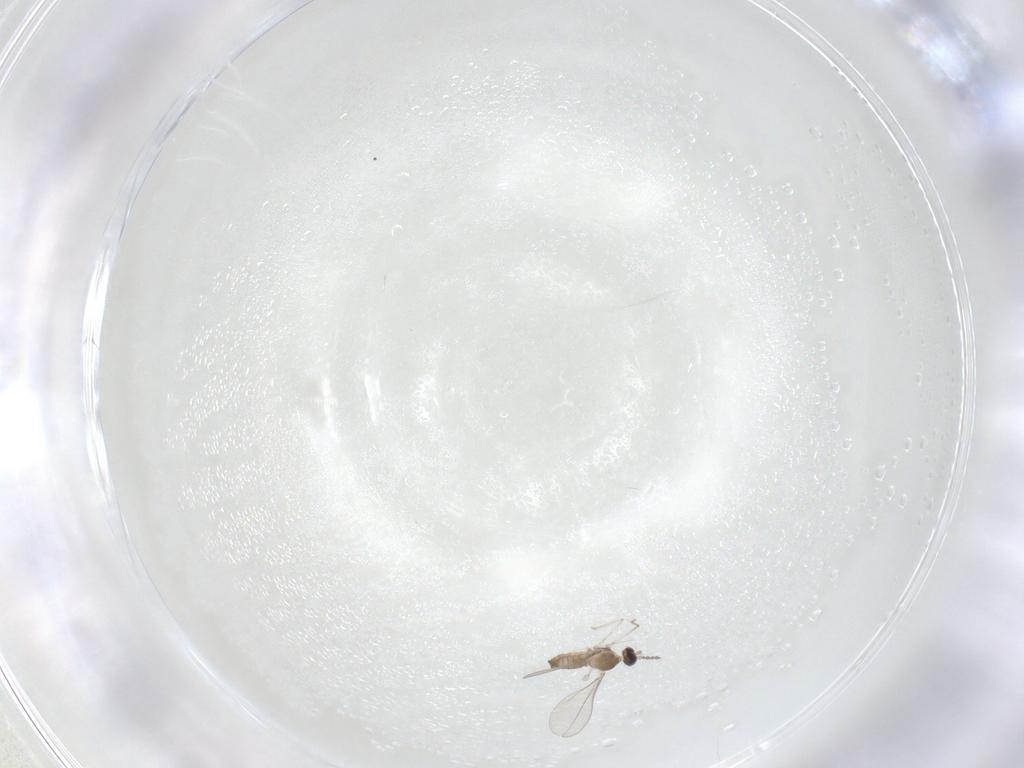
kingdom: Animalia
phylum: Arthropoda
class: Insecta
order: Diptera
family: Cecidomyiidae
